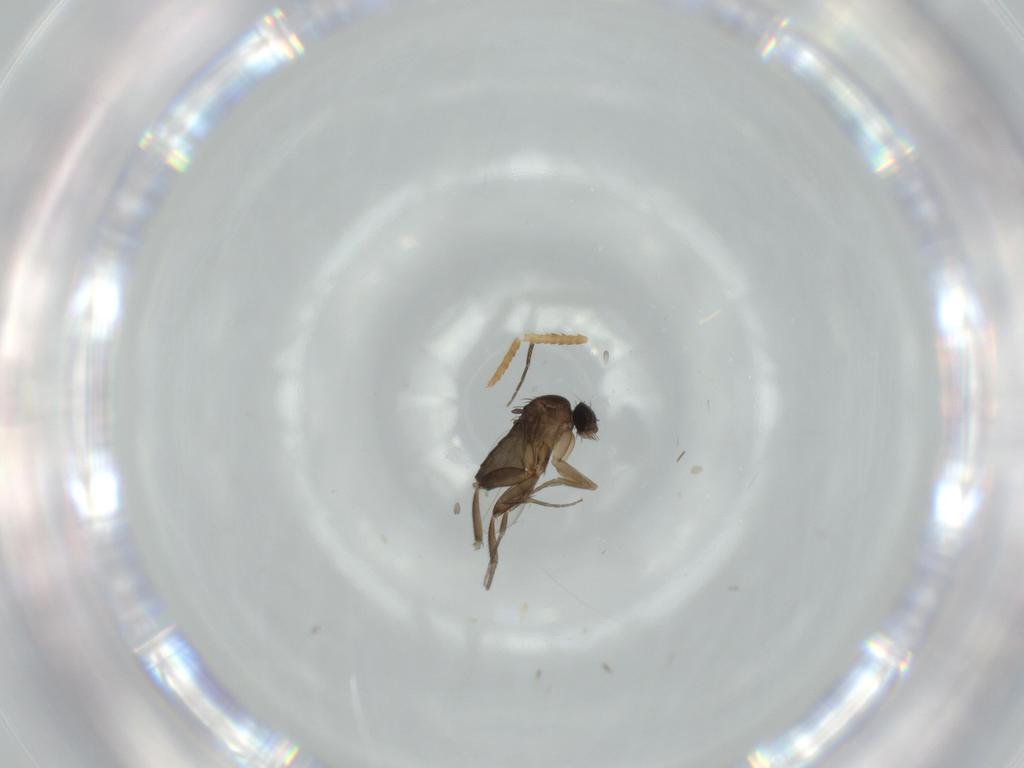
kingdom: Animalia
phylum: Arthropoda
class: Insecta
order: Diptera
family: Phoridae
